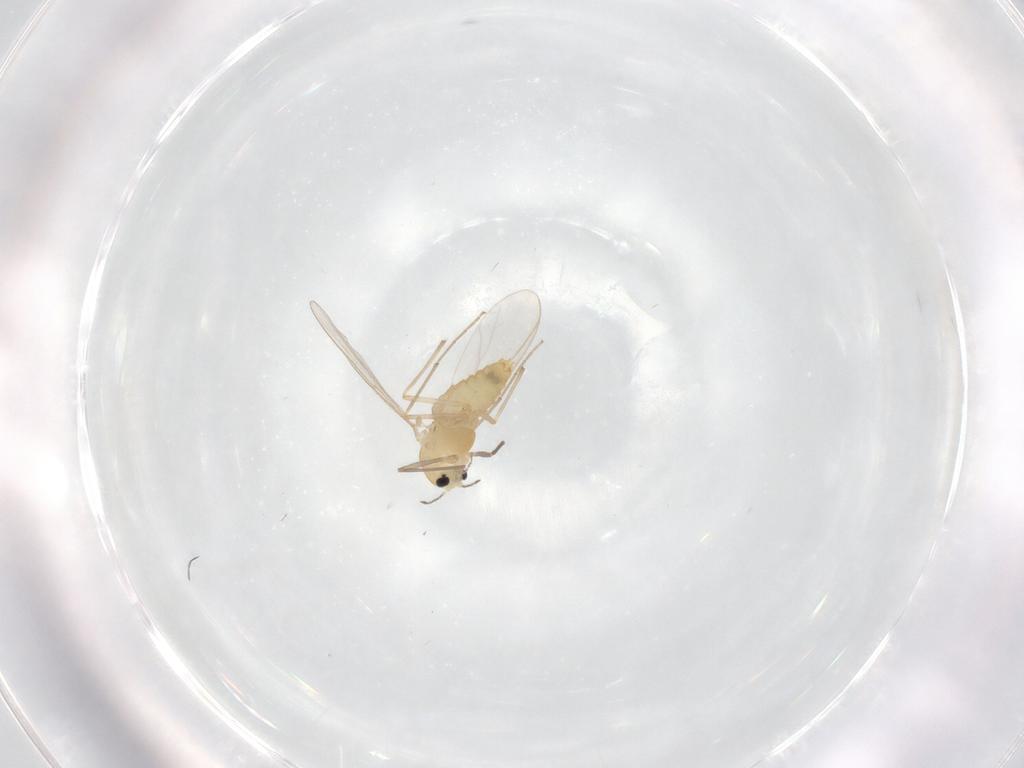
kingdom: Animalia
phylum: Arthropoda
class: Insecta
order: Diptera
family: Chironomidae
